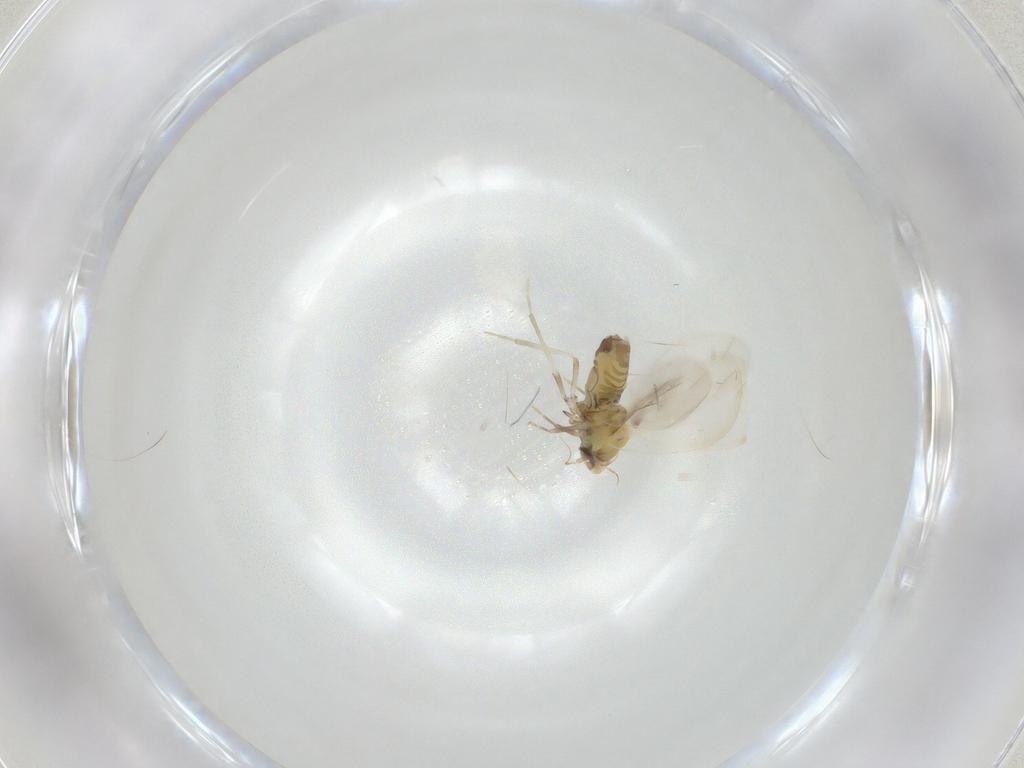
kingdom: Animalia
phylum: Arthropoda
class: Insecta
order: Hemiptera
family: Aleyrodidae
